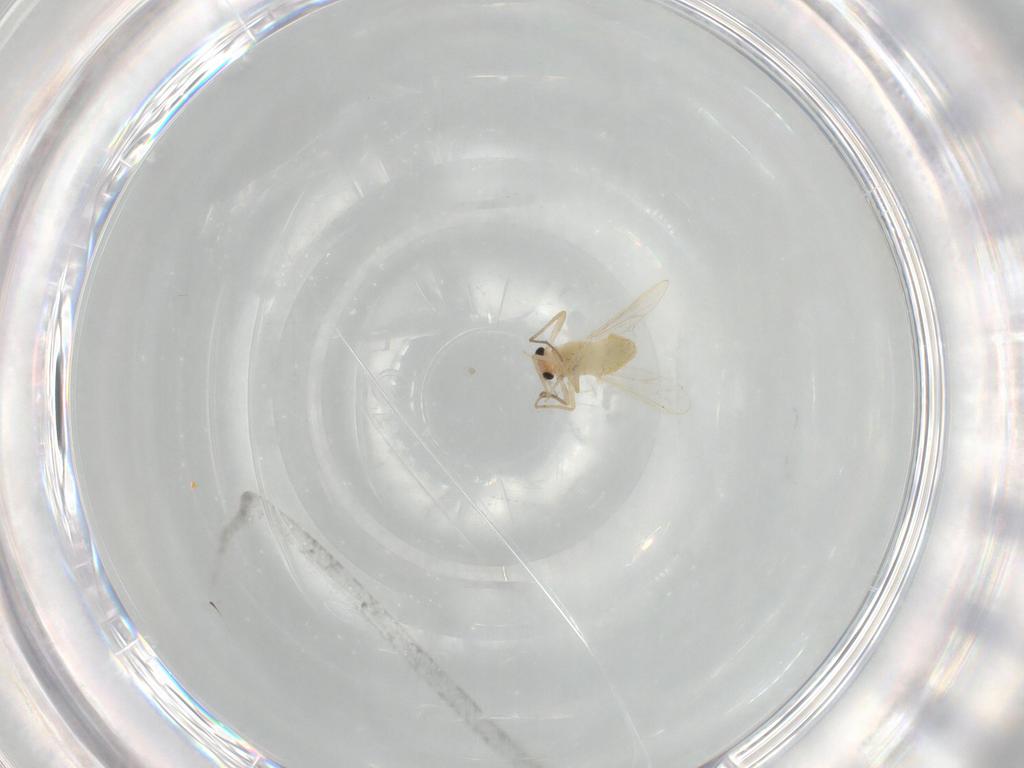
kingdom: Animalia
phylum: Arthropoda
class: Insecta
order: Diptera
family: Chironomidae
